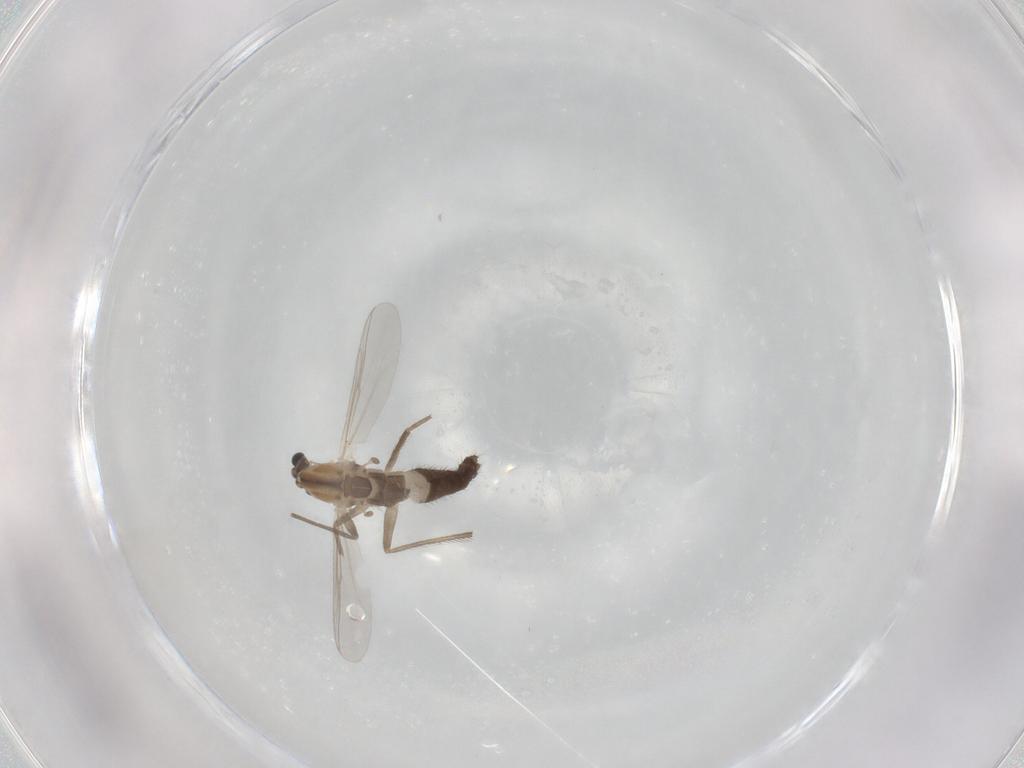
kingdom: Animalia
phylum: Arthropoda
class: Insecta
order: Diptera
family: Chironomidae
